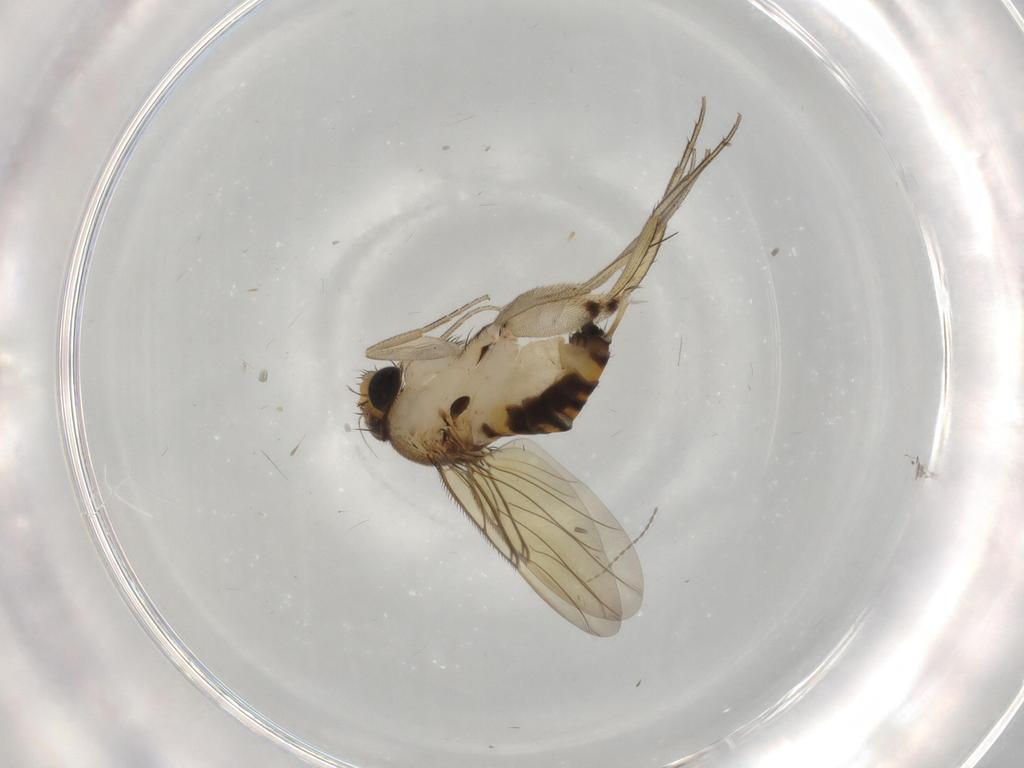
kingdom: Animalia
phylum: Arthropoda
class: Insecta
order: Diptera
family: Phoridae
